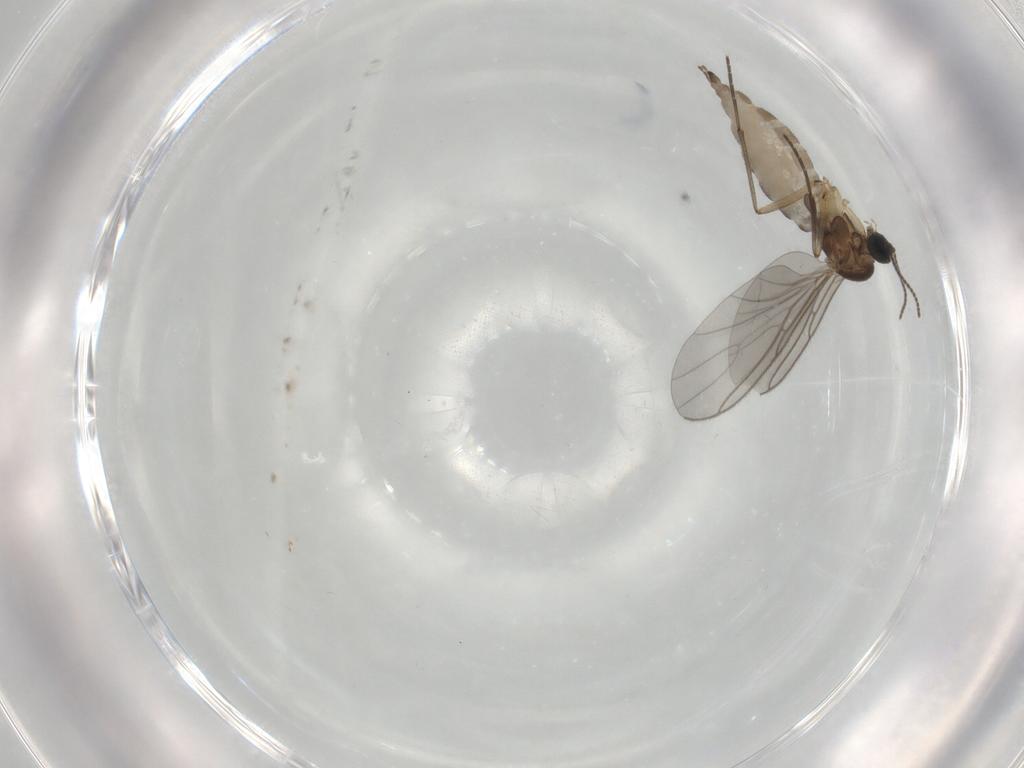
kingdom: Animalia
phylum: Arthropoda
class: Insecta
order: Diptera
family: Sciaridae
